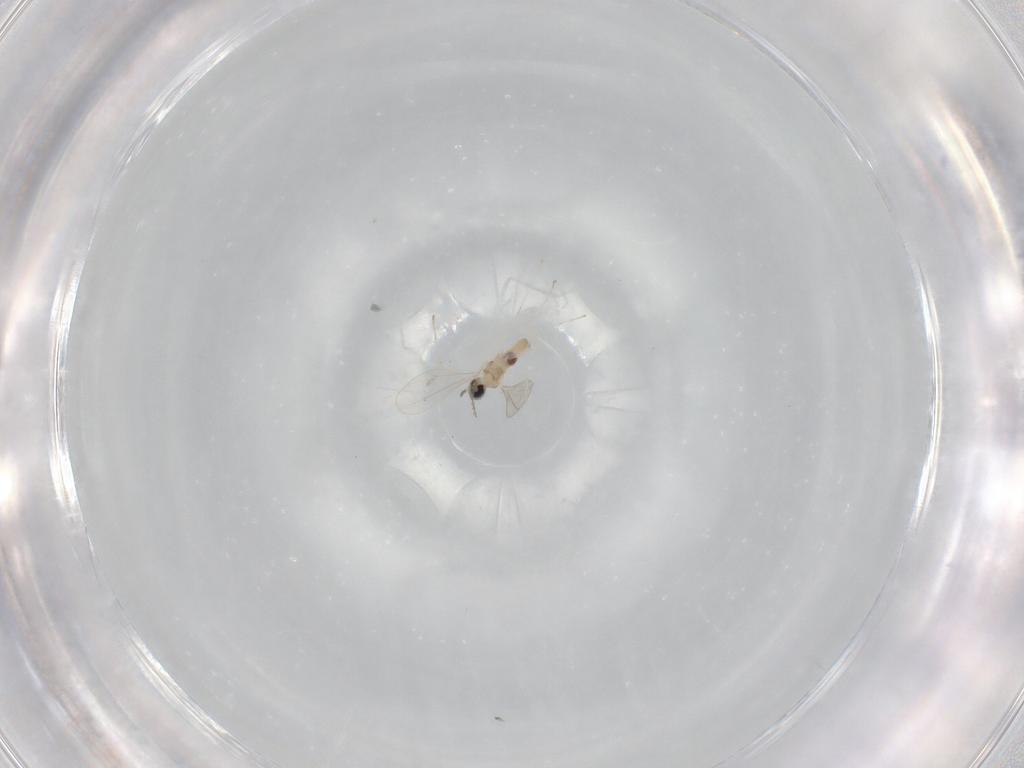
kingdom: Animalia
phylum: Arthropoda
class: Insecta
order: Diptera
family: Cecidomyiidae
